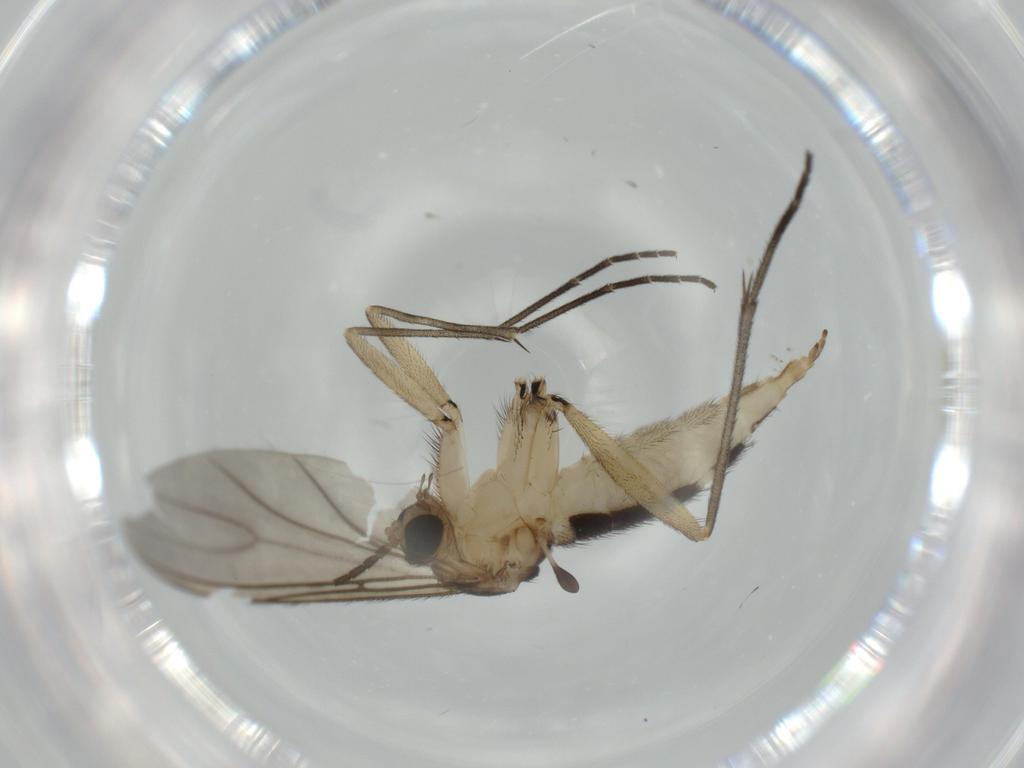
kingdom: Animalia
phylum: Arthropoda
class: Insecta
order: Diptera
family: Sciaridae
